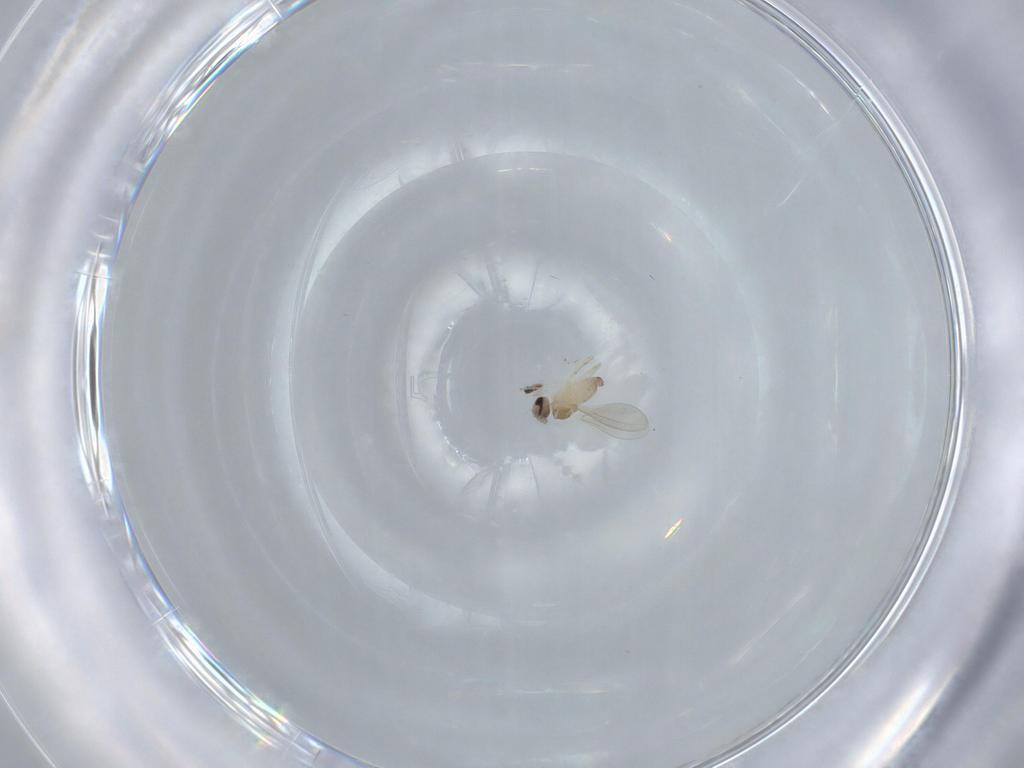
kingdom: Animalia
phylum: Arthropoda
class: Insecta
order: Diptera
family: Cecidomyiidae
